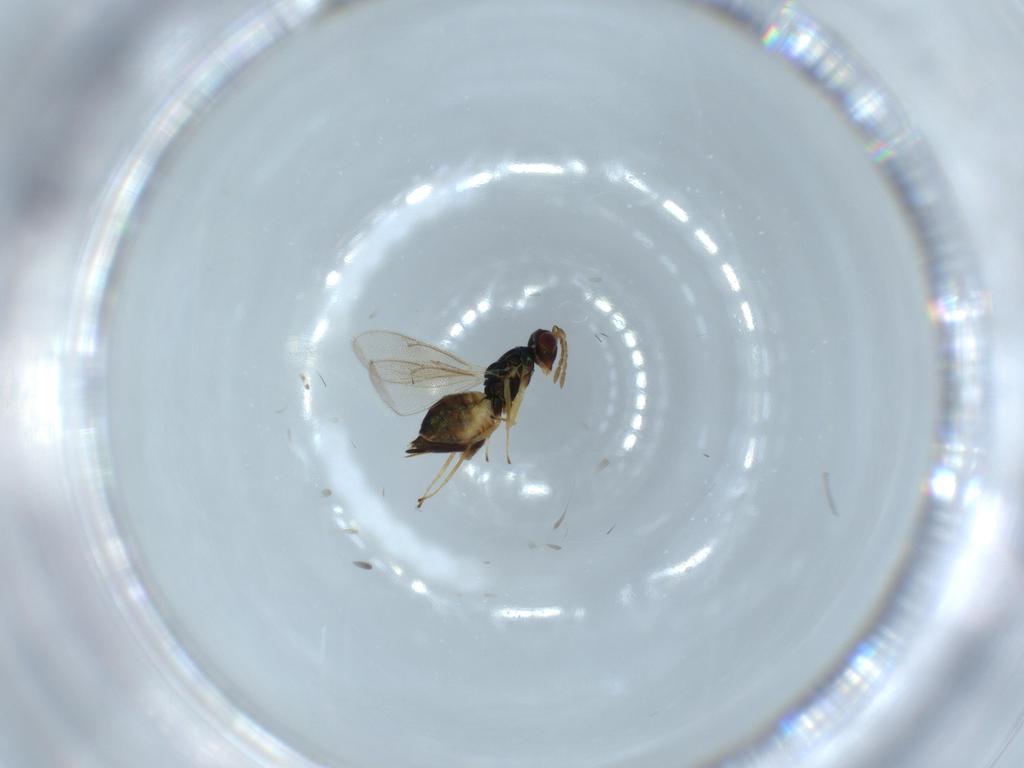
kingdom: Animalia
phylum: Arthropoda
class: Insecta
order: Hymenoptera
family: Eulophidae
